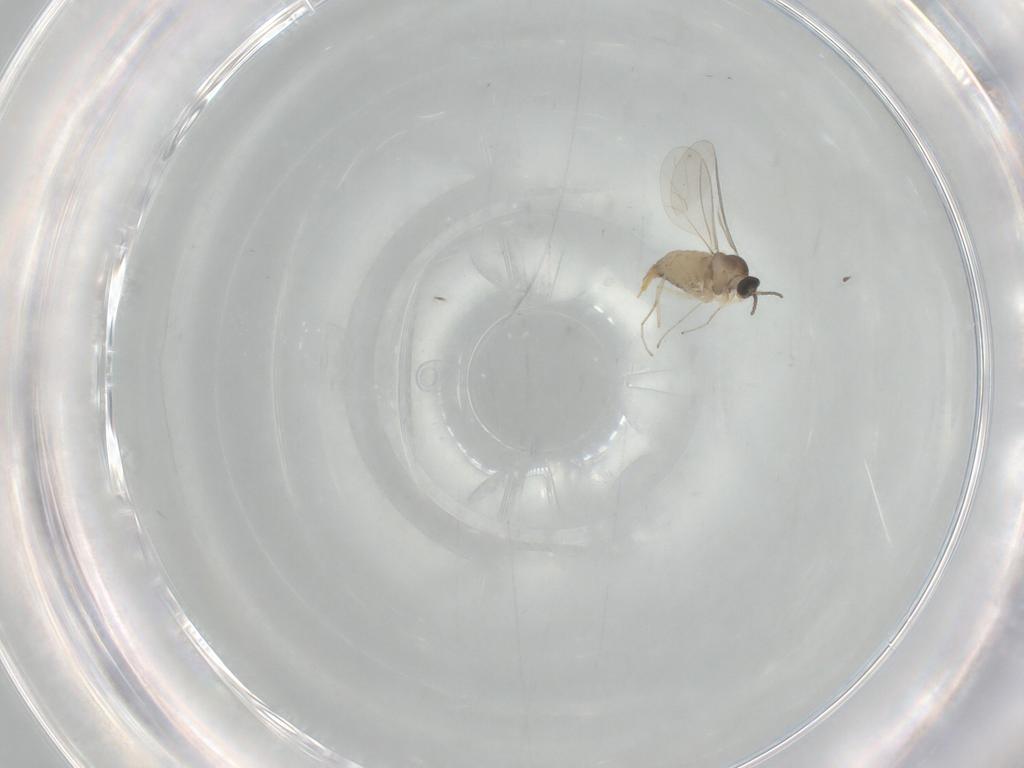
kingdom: Animalia
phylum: Arthropoda
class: Insecta
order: Diptera
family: Cecidomyiidae
